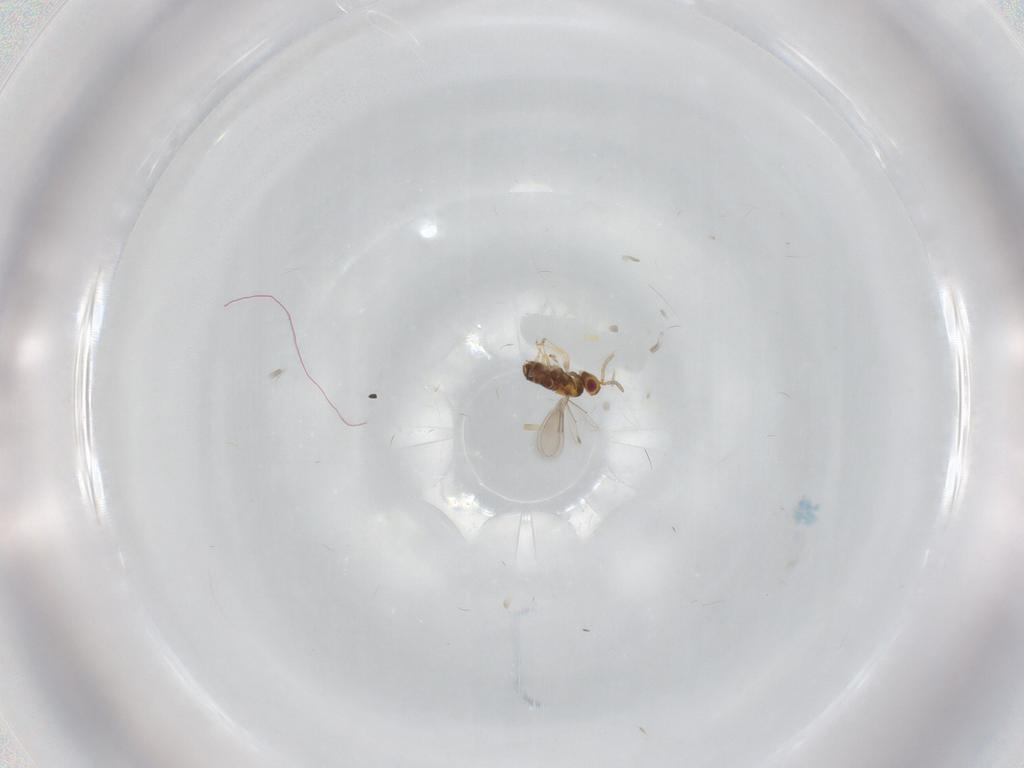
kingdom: Animalia
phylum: Arthropoda
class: Insecta
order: Hymenoptera
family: Aphelinidae
